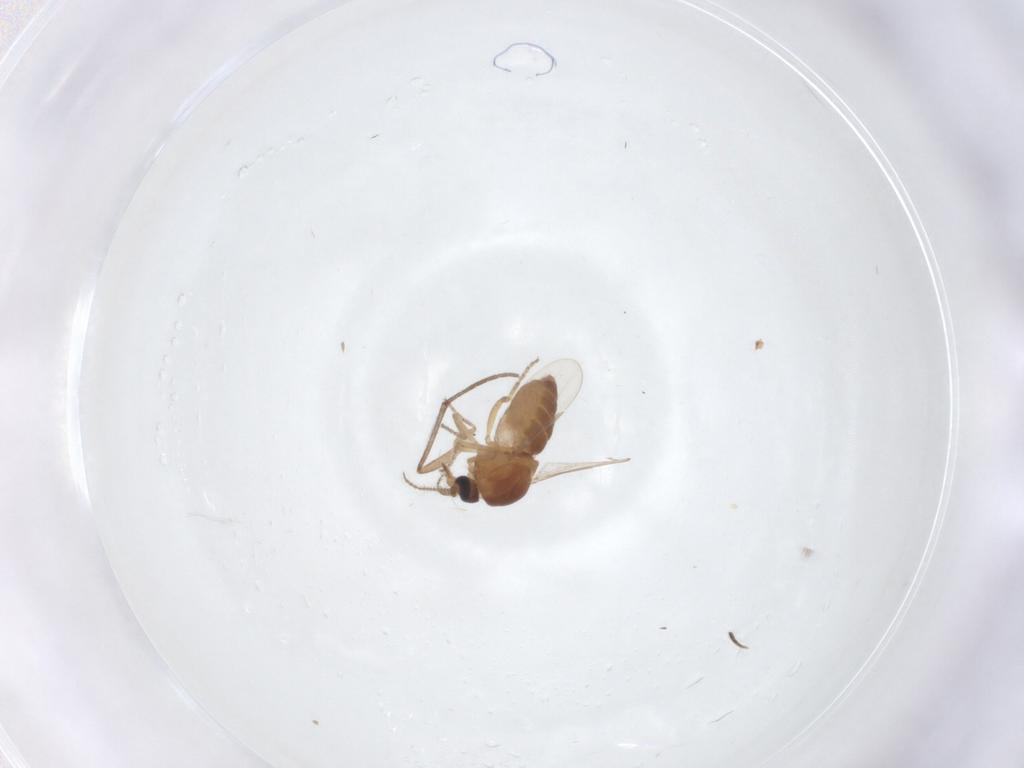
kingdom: Animalia
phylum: Arthropoda
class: Insecta
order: Diptera
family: Ceratopogonidae
